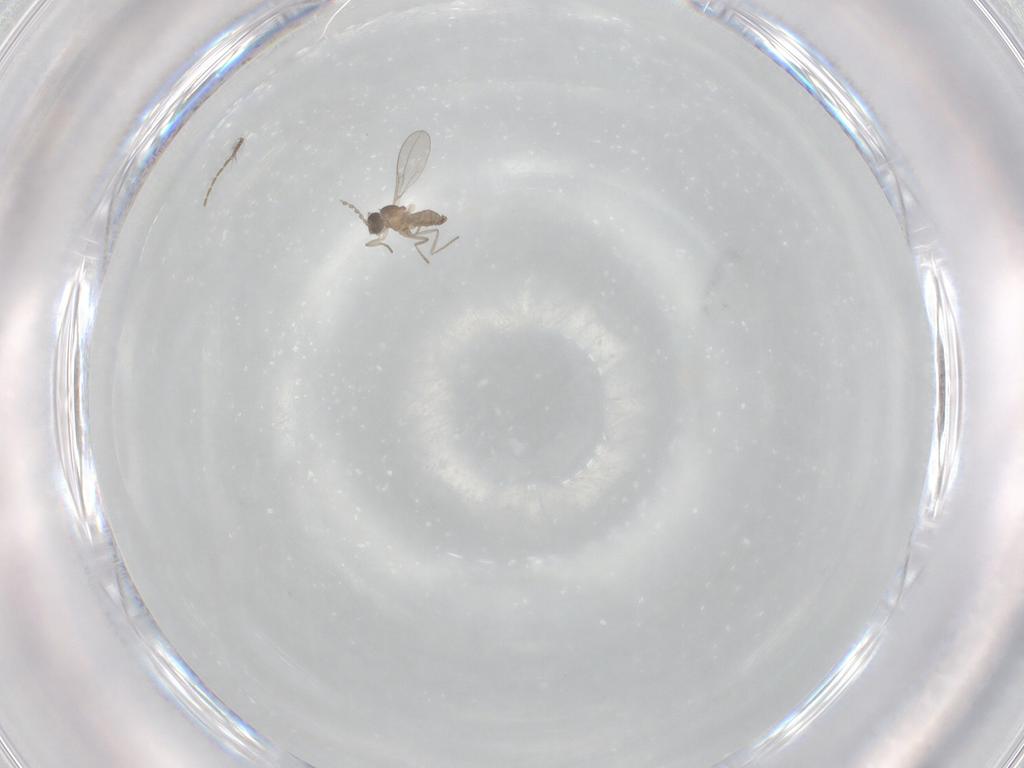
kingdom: Animalia
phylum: Arthropoda
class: Insecta
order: Diptera
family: Cecidomyiidae
